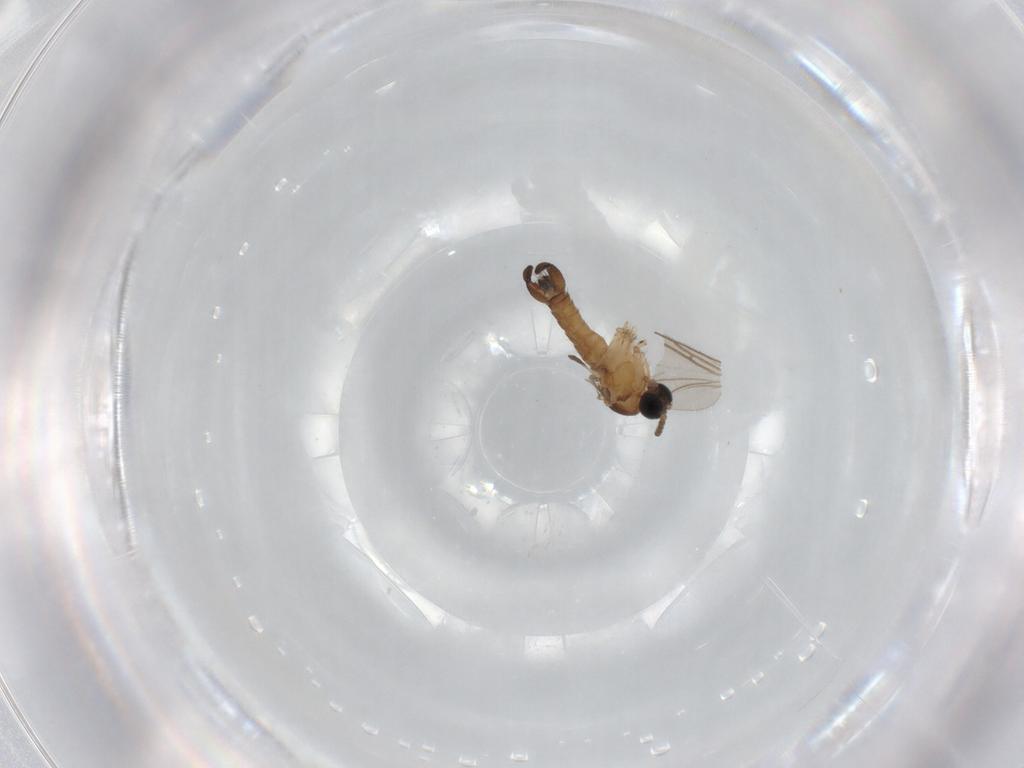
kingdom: Animalia
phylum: Arthropoda
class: Insecta
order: Diptera
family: Sciaridae
